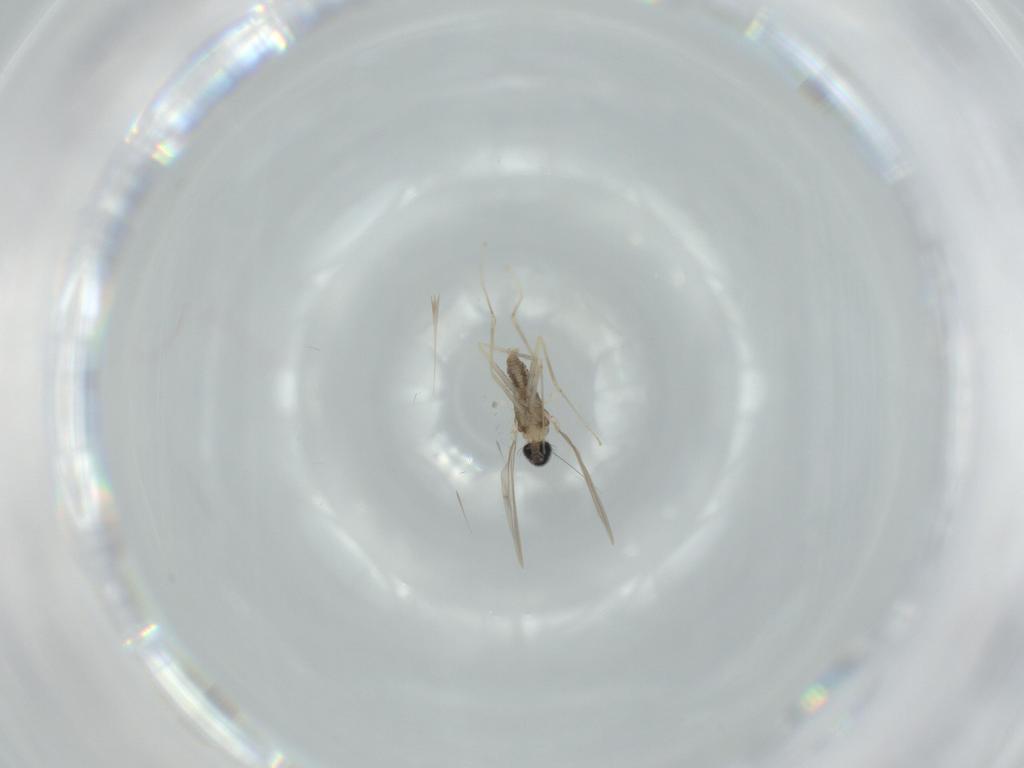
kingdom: Animalia
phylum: Arthropoda
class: Insecta
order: Diptera
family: Cecidomyiidae
